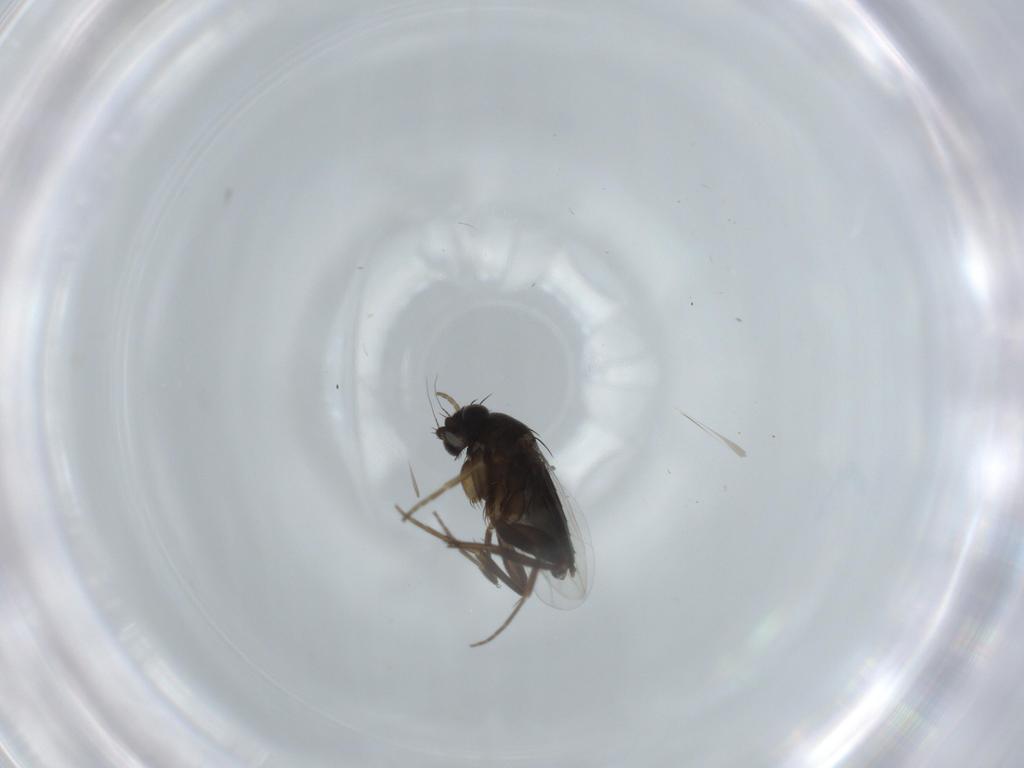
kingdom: Animalia
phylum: Arthropoda
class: Insecta
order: Diptera
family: Phoridae
